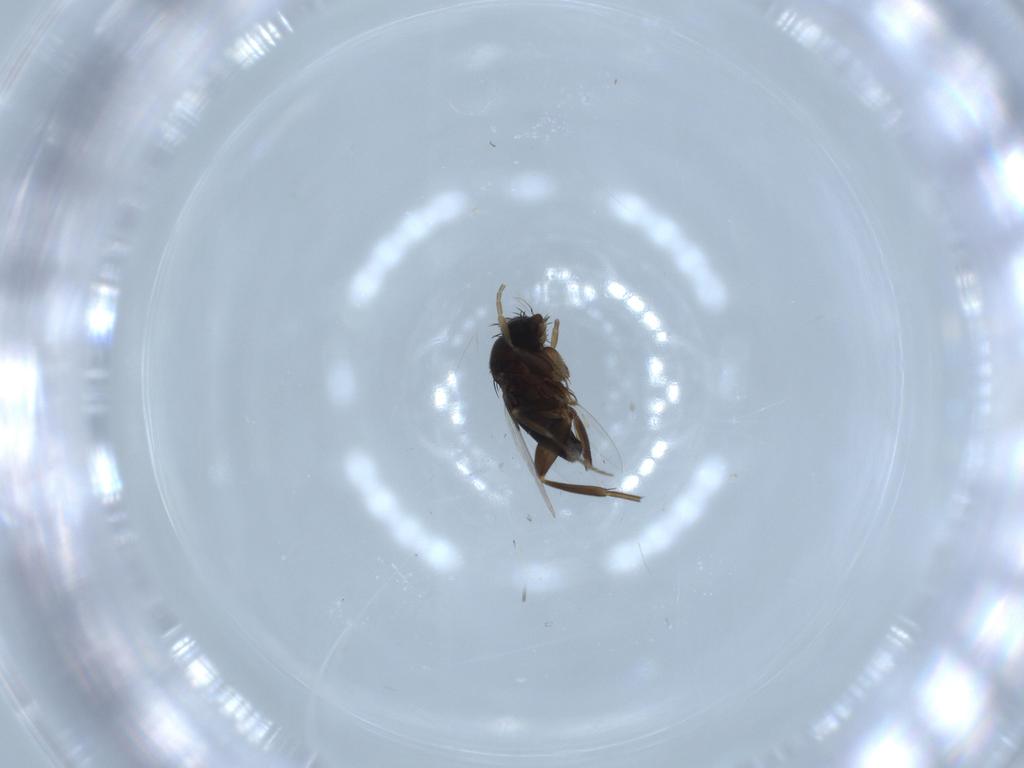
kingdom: Animalia
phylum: Arthropoda
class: Insecta
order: Diptera
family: Phoridae
